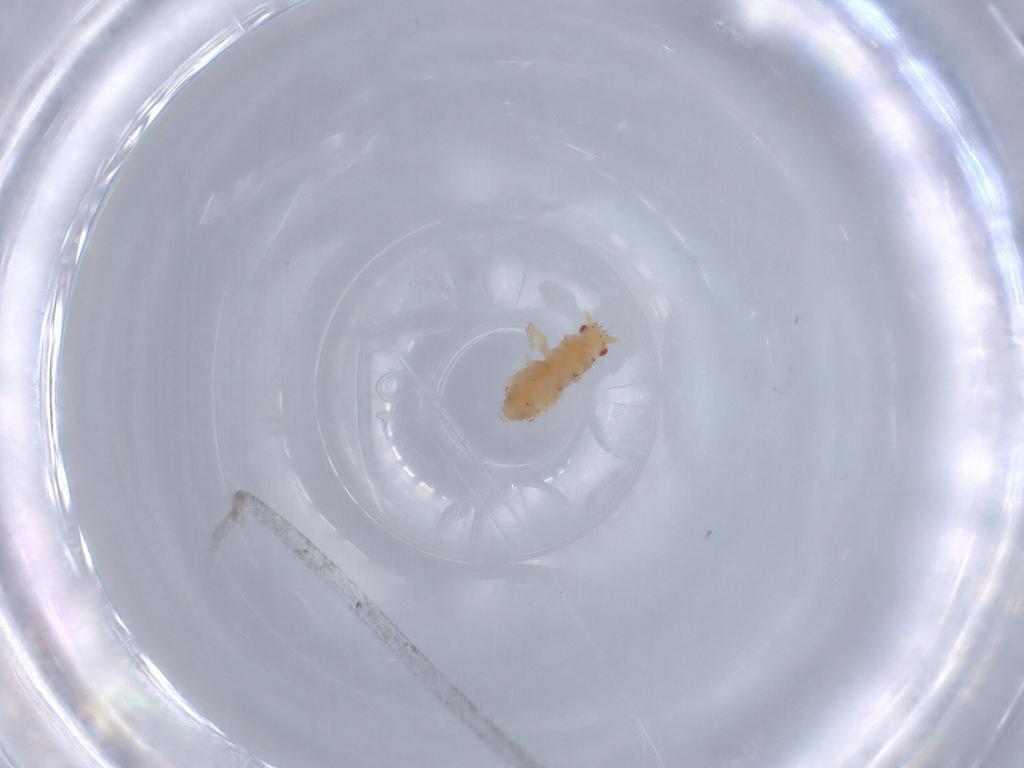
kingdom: Animalia
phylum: Arthropoda
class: Insecta
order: Hemiptera
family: Aphididae
